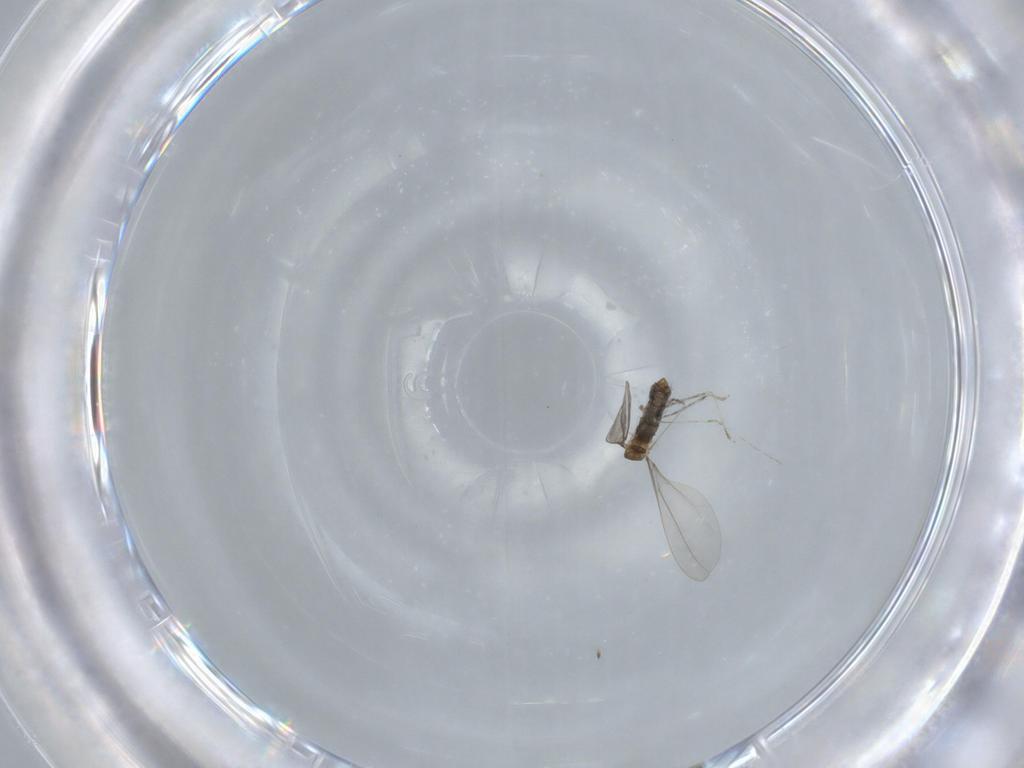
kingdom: Animalia
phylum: Arthropoda
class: Insecta
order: Diptera
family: Cecidomyiidae
